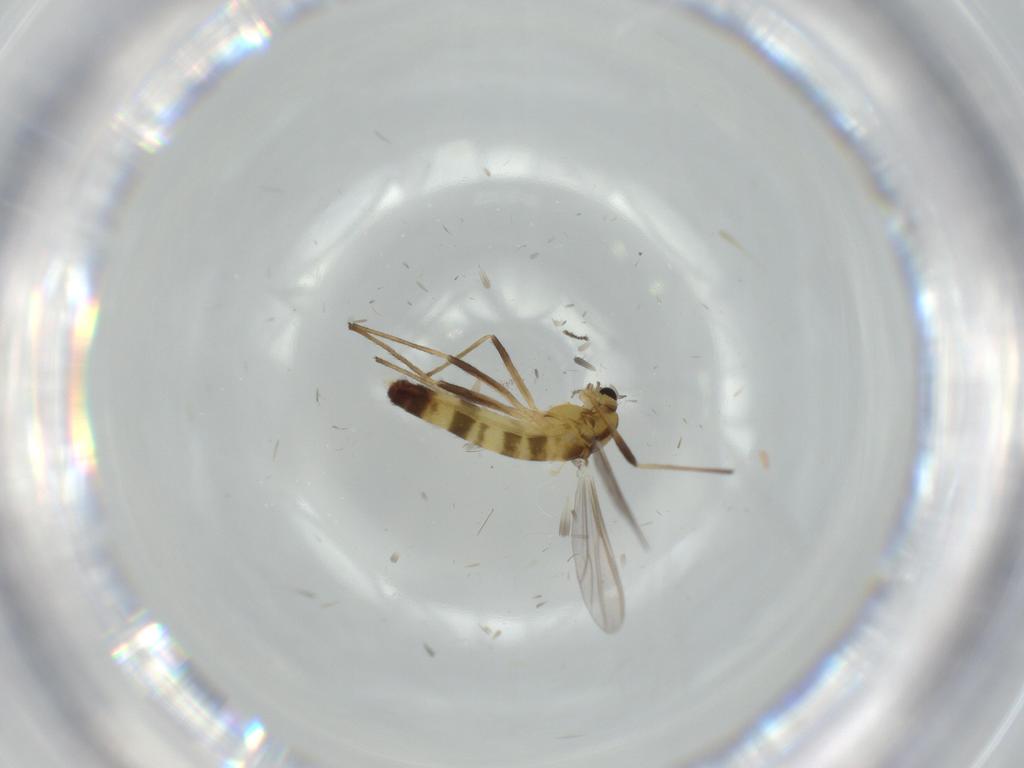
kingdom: Animalia
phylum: Arthropoda
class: Insecta
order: Diptera
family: Chironomidae
